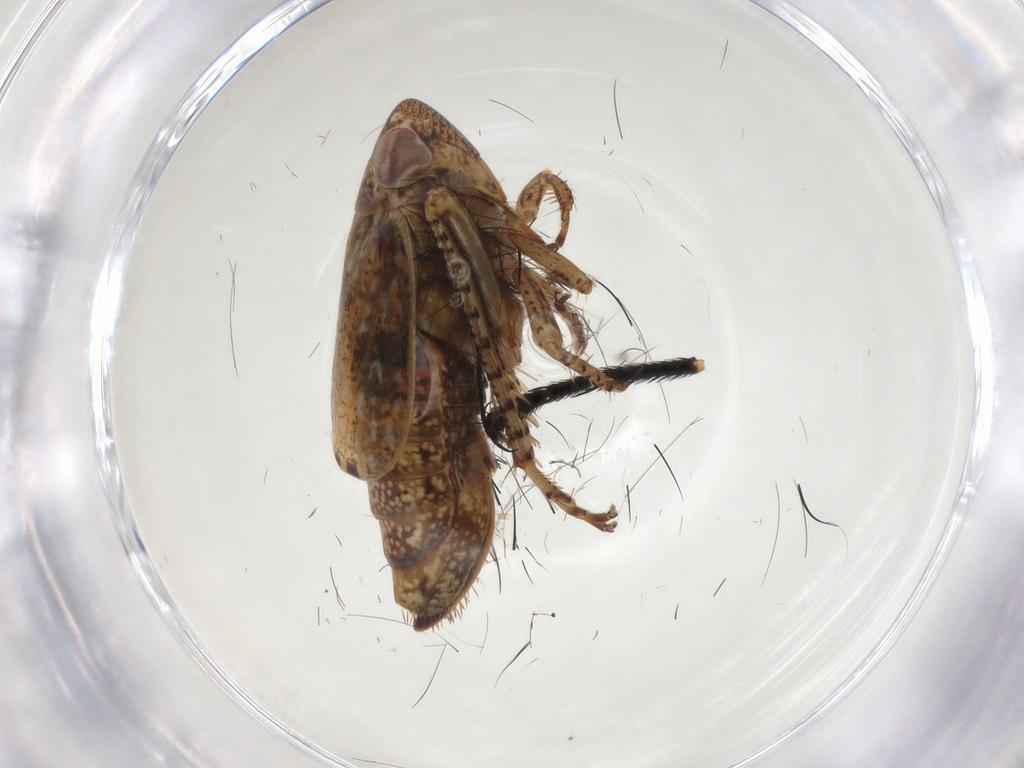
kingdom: Animalia
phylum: Arthropoda
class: Insecta
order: Hemiptera
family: Cicadellidae
